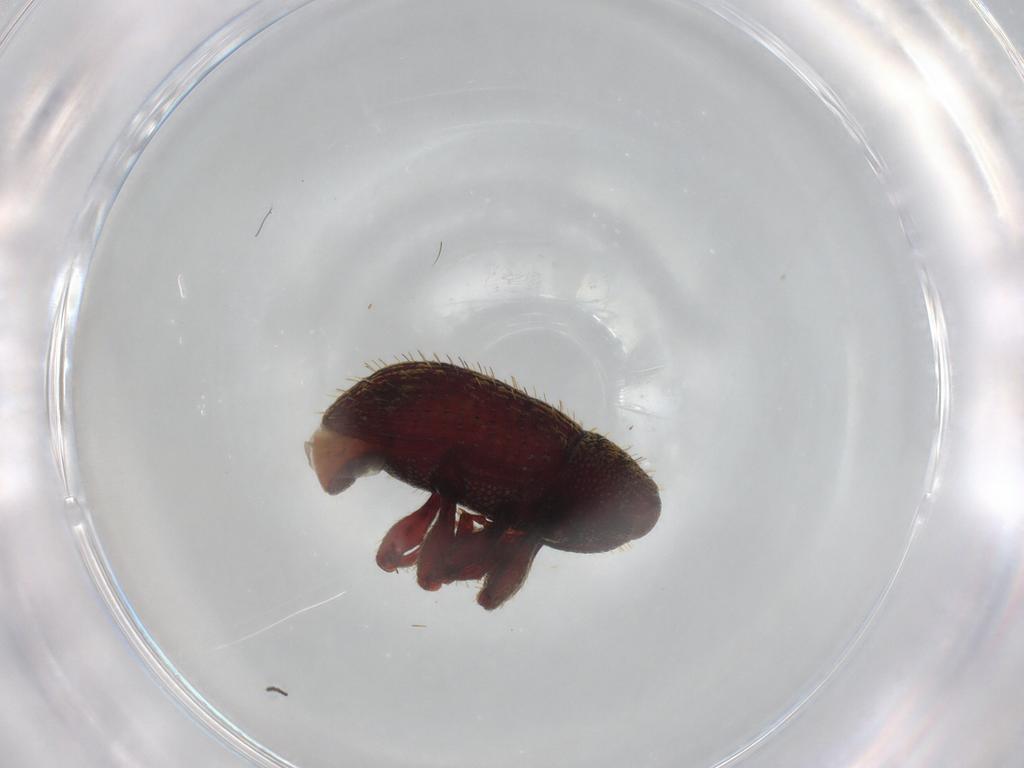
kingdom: Animalia
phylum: Arthropoda
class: Insecta
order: Coleoptera
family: Curculionidae
